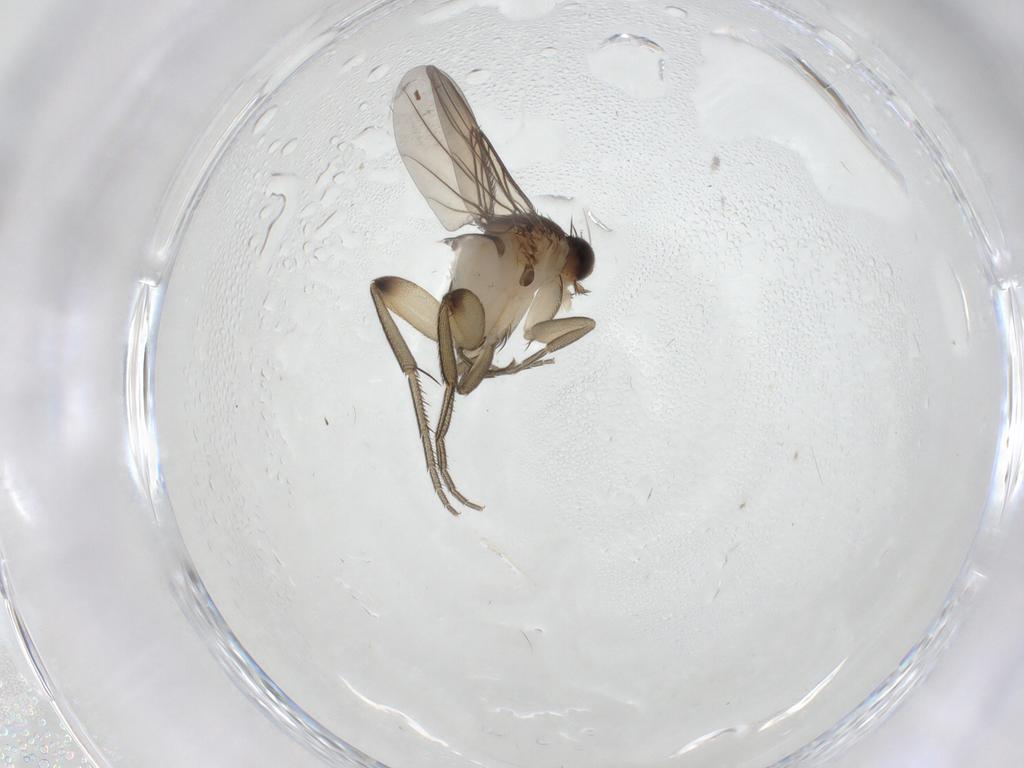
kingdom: Animalia
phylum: Arthropoda
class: Insecta
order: Diptera
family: Phoridae
